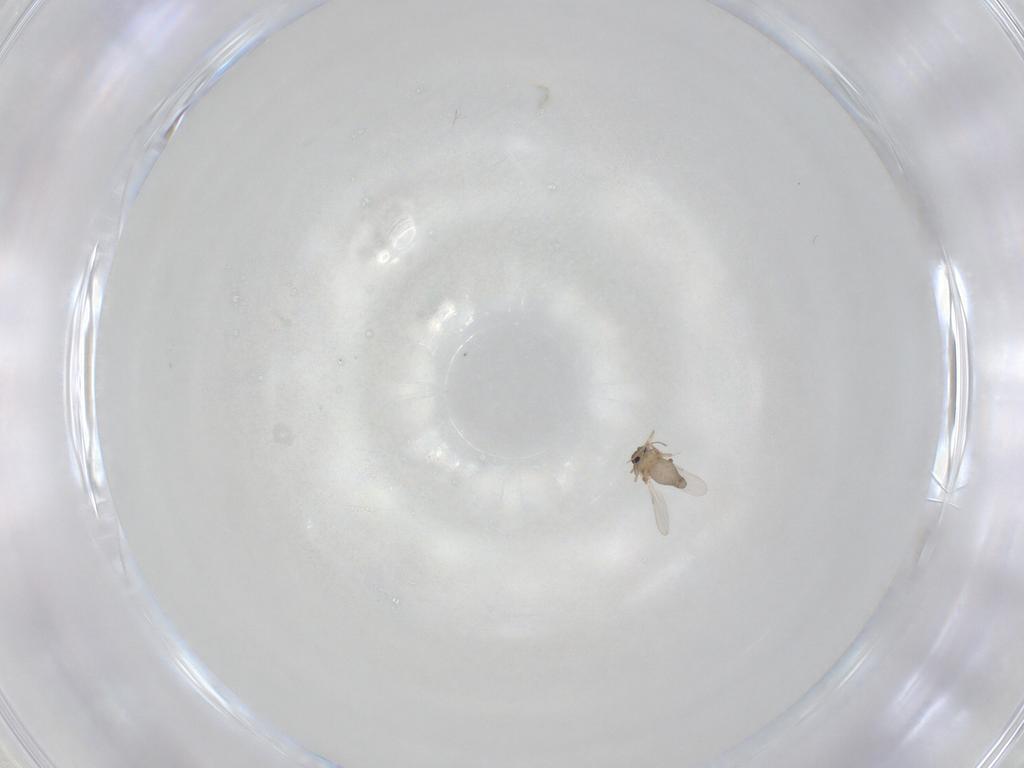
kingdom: Animalia
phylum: Arthropoda
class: Insecta
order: Diptera
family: Ceratopogonidae
